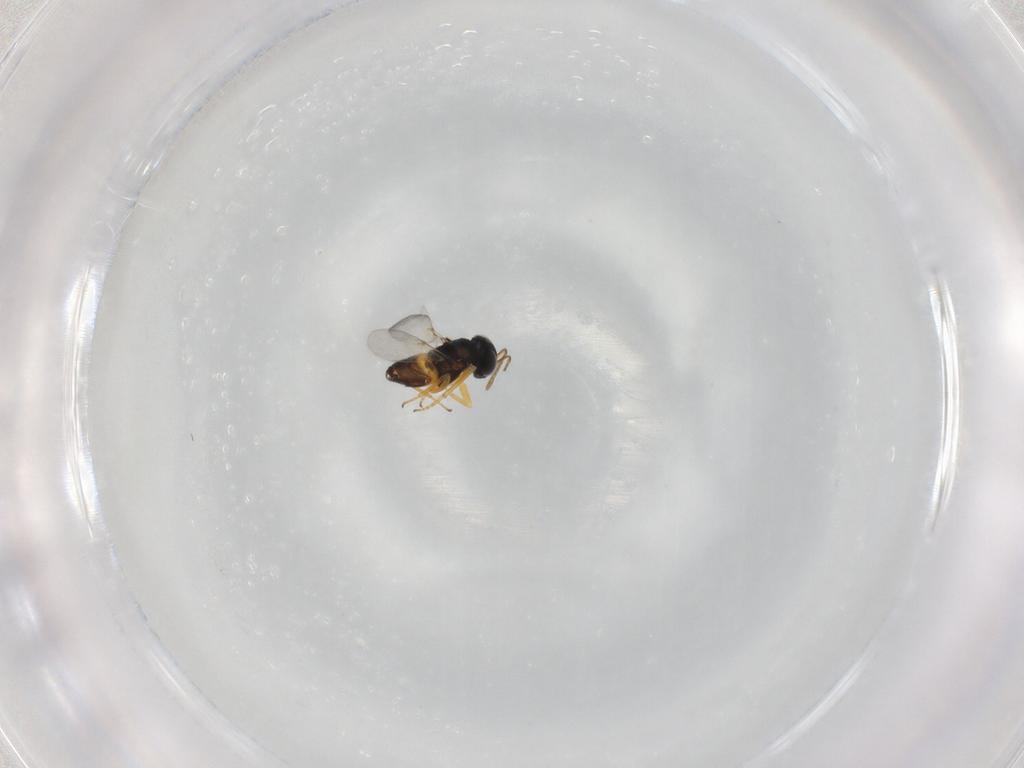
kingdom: Animalia
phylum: Arthropoda
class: Insecta
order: Hymenoptera
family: Encyrtidae
